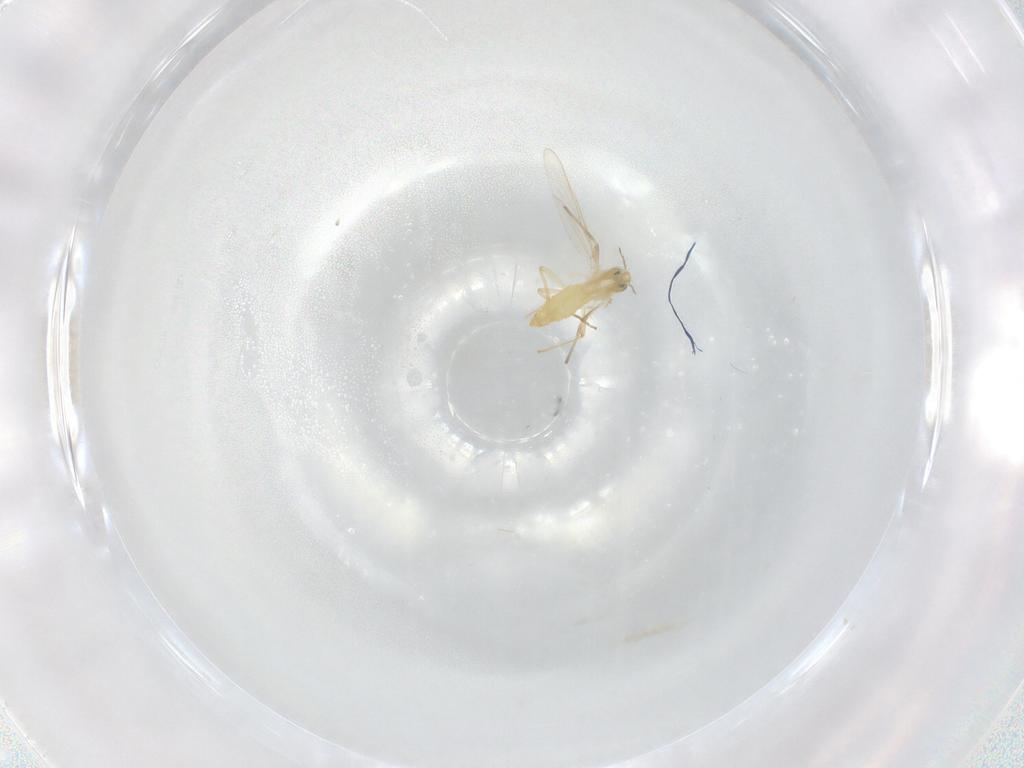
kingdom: Animalia
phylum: Arthropoda
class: Insecta
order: Diptera
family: Chironomidae
